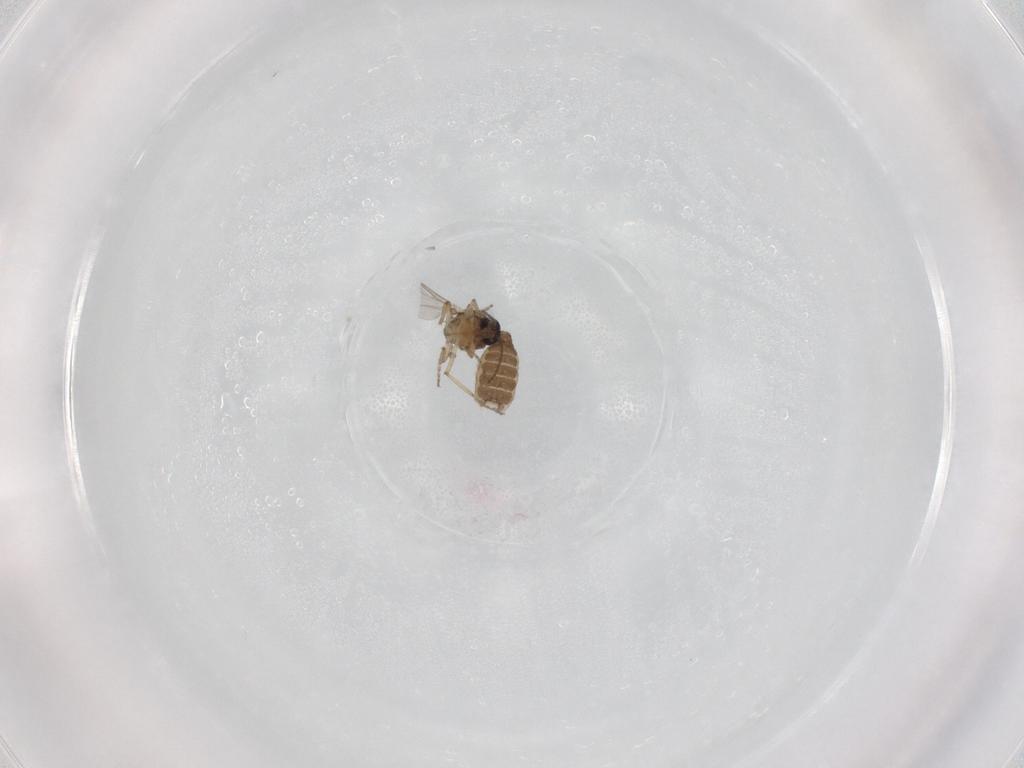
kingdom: Animalia
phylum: Arthropoda
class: Insecta
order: Diptera
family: Ceratopogonidae
